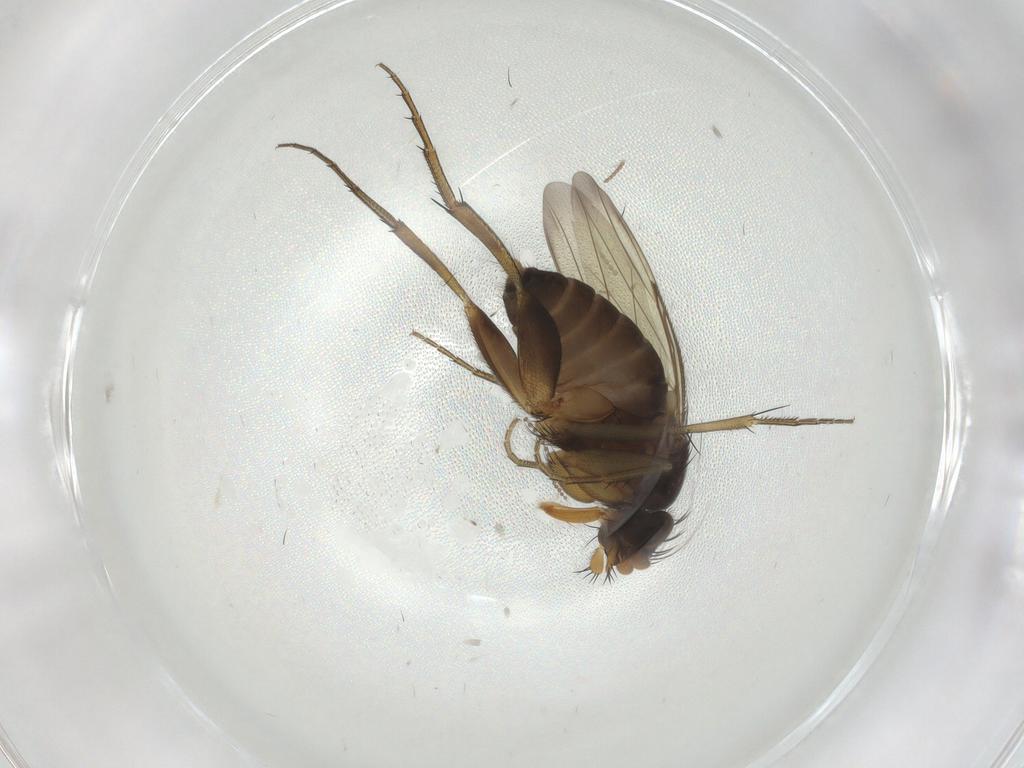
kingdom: Animalia
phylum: Arthropoda
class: Insecta
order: Diptera
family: Phoridae
